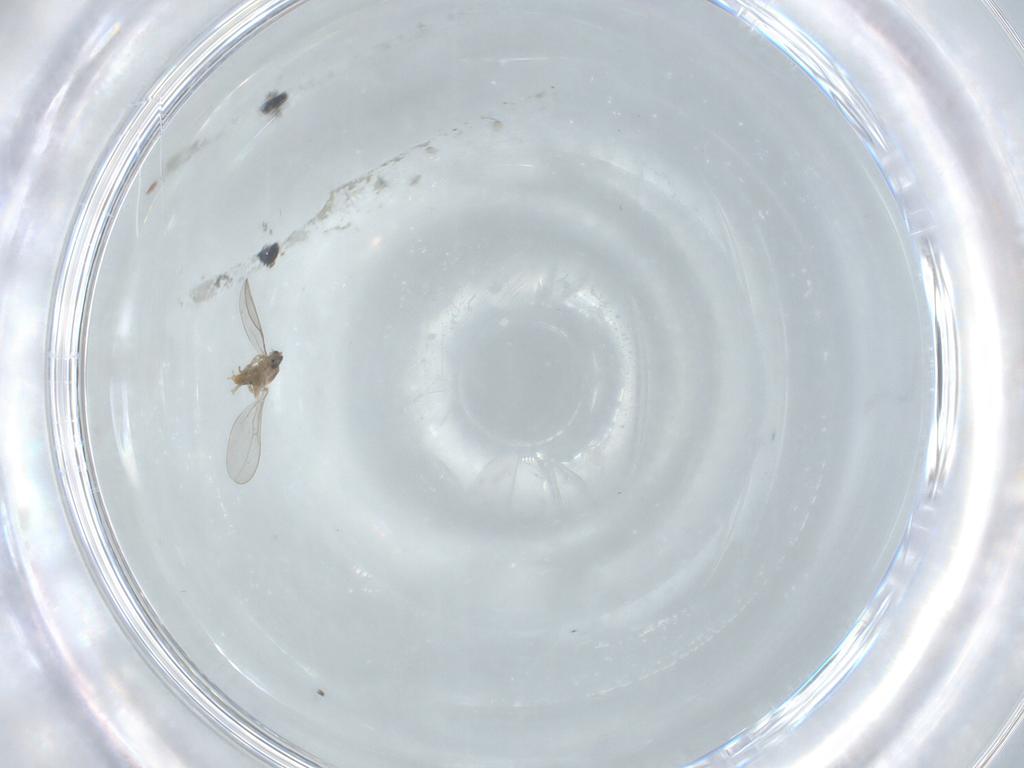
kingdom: Animalia
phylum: Arthropoda
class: Insecta
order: Diptera
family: Cecidomyiidae
